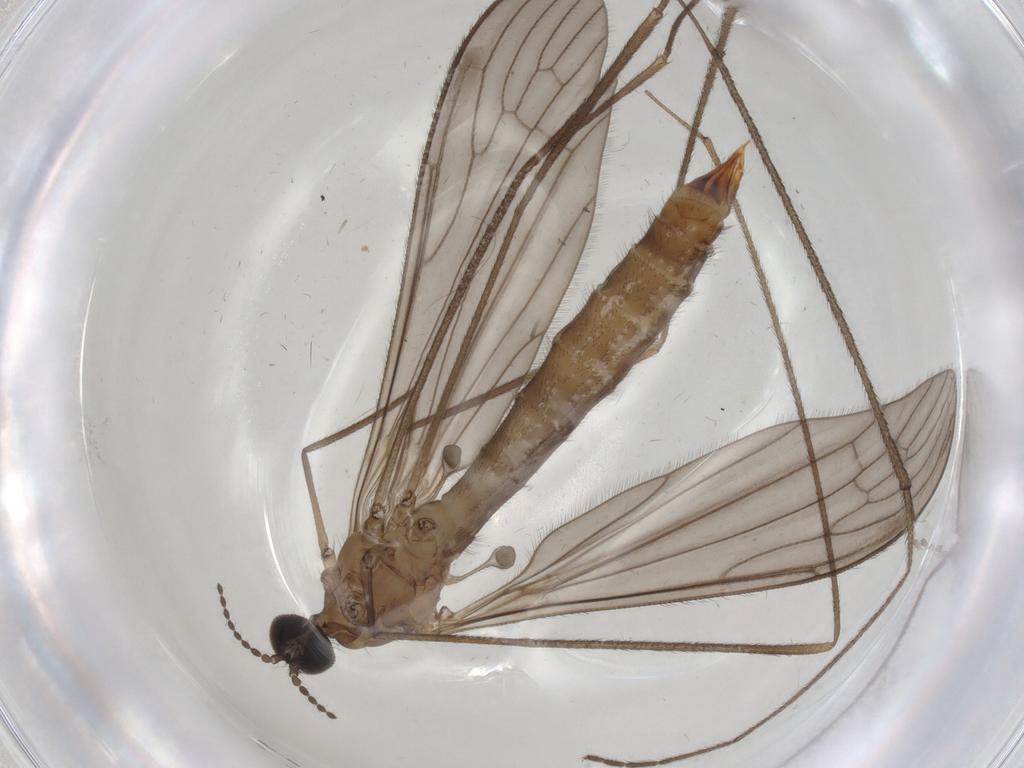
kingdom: Animalia
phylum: Arthropoda
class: Insecta
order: Diptera
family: Limoniidae
